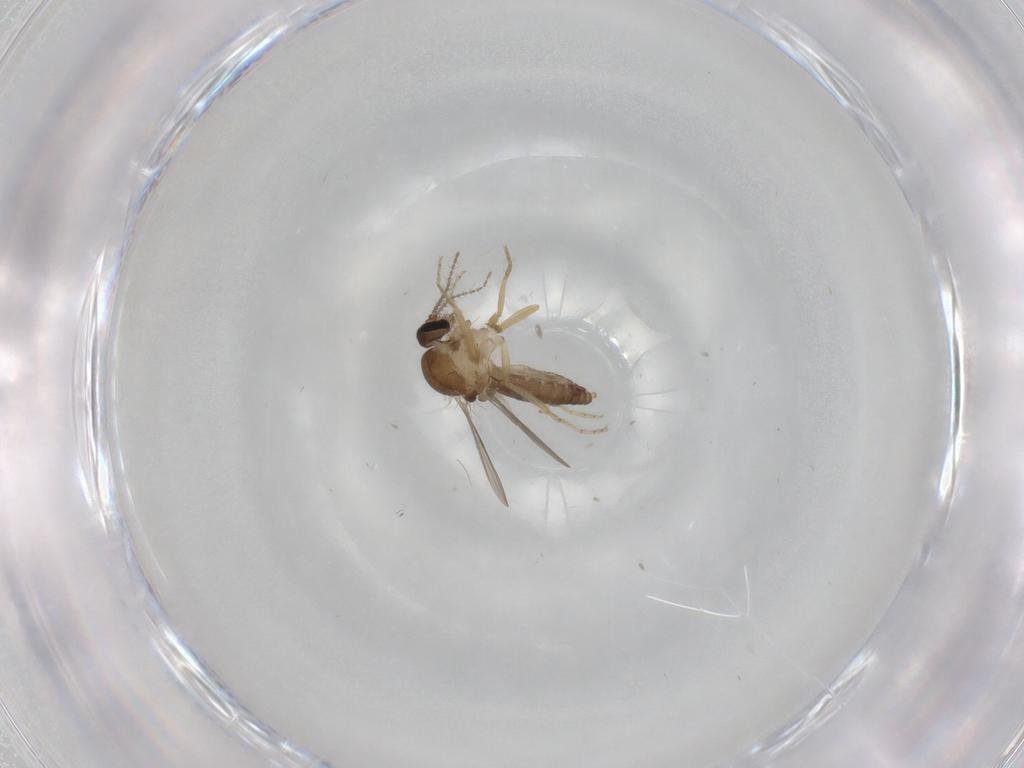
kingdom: Animalia
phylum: Arthropoda
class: Insecta
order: Diptera
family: Ceratopogonidae
